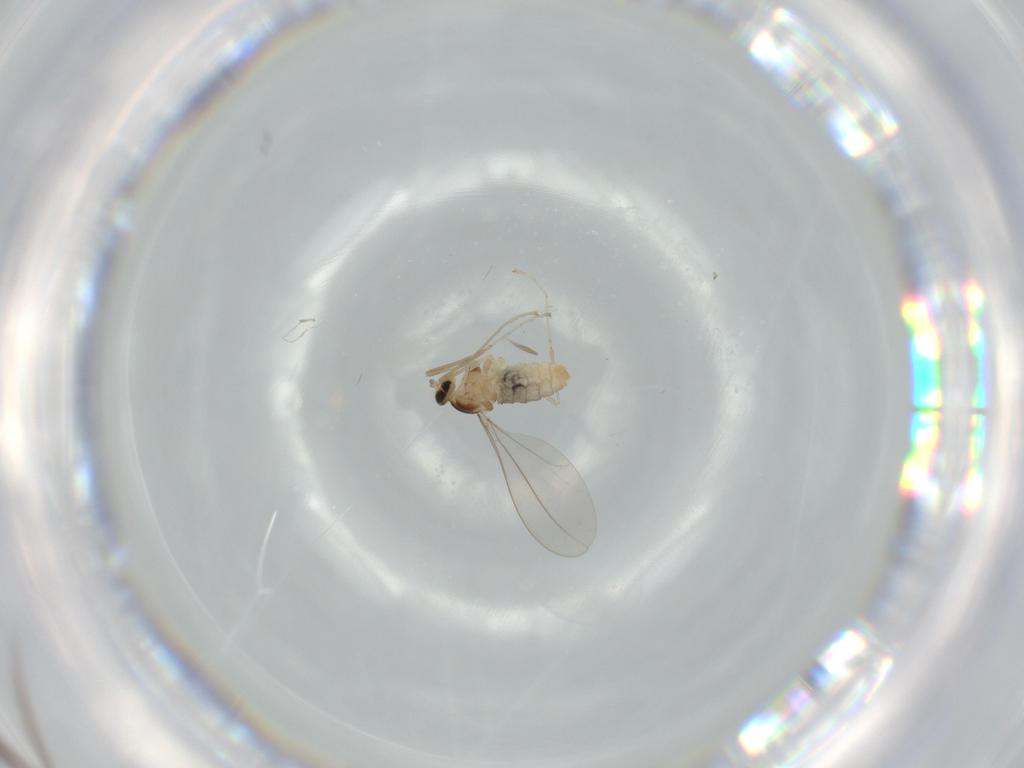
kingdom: Animalia
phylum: Arthropoda
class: Insecta
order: Diptera
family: Cecidomyiidae
